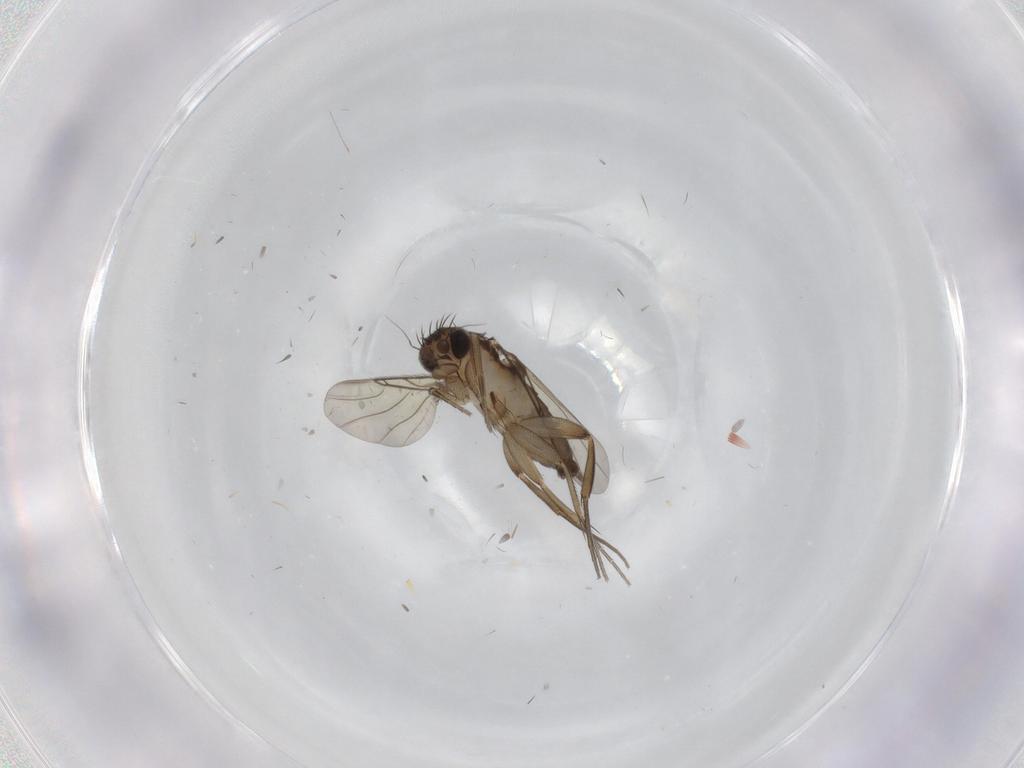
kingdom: Animalia
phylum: Arthropoda
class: Insecta
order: Diptera
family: Phoridae
